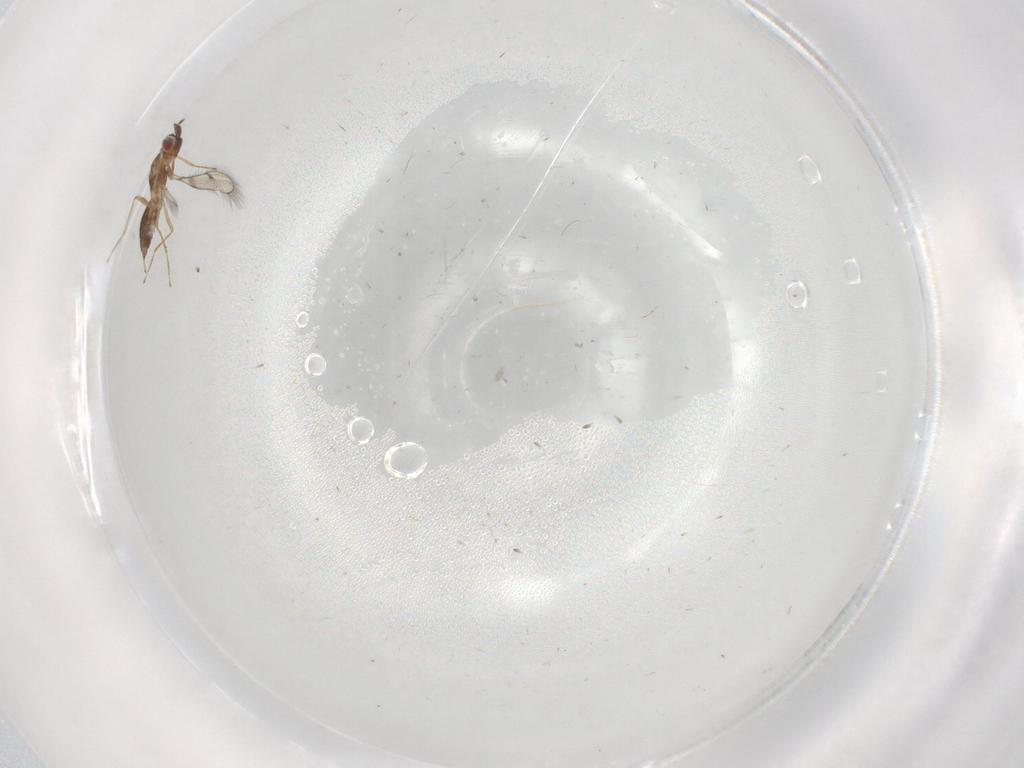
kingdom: Animalia
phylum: Arthropoda
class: Insecta
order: Hymenoptera
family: Eulophidae
